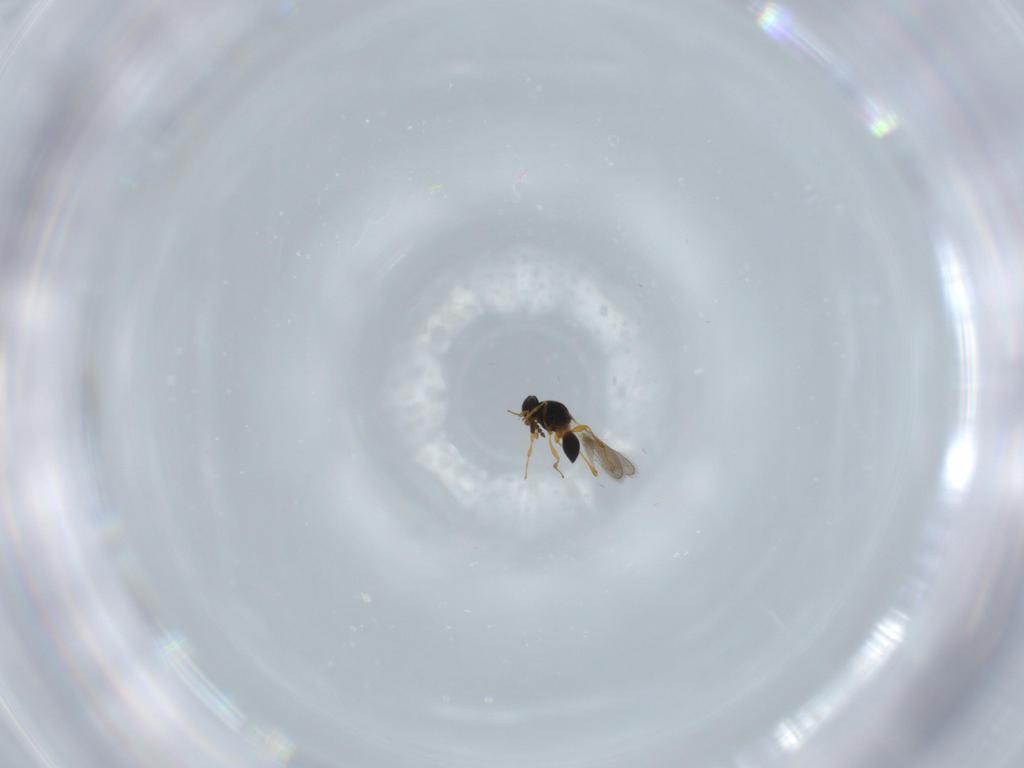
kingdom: Animalia
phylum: Arthropoda
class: Insecta
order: Hymenoptera
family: Platygastridae
